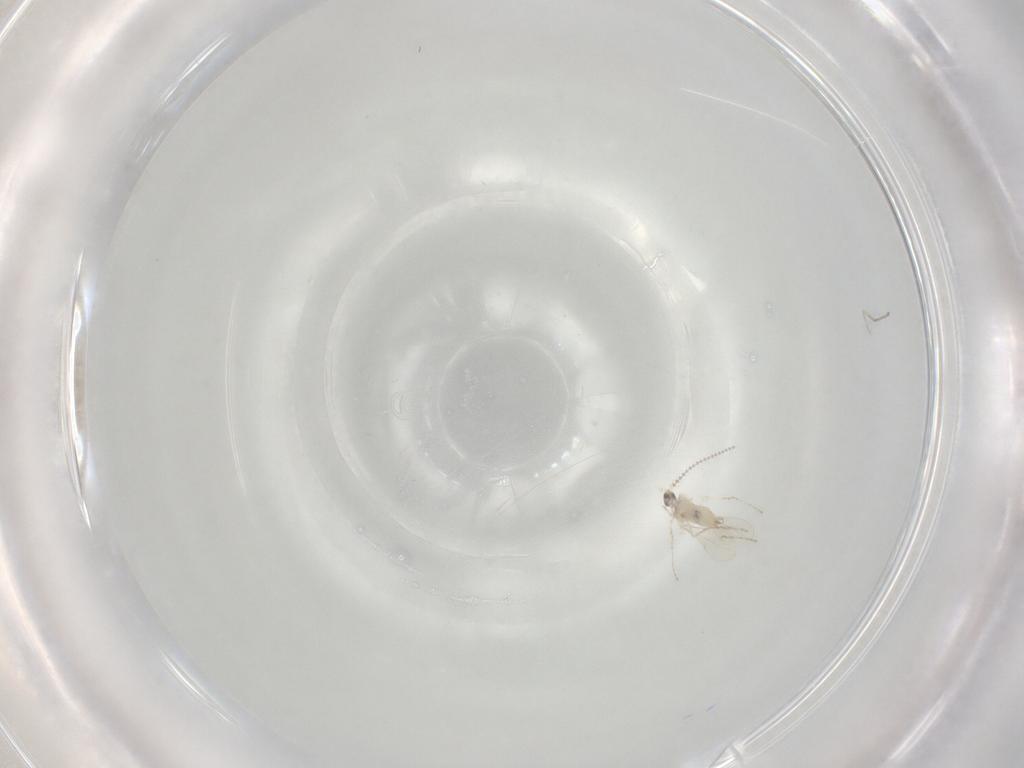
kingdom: Animalia
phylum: Arthropoda
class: Insecta
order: Diptera
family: Cecidomyiidae
